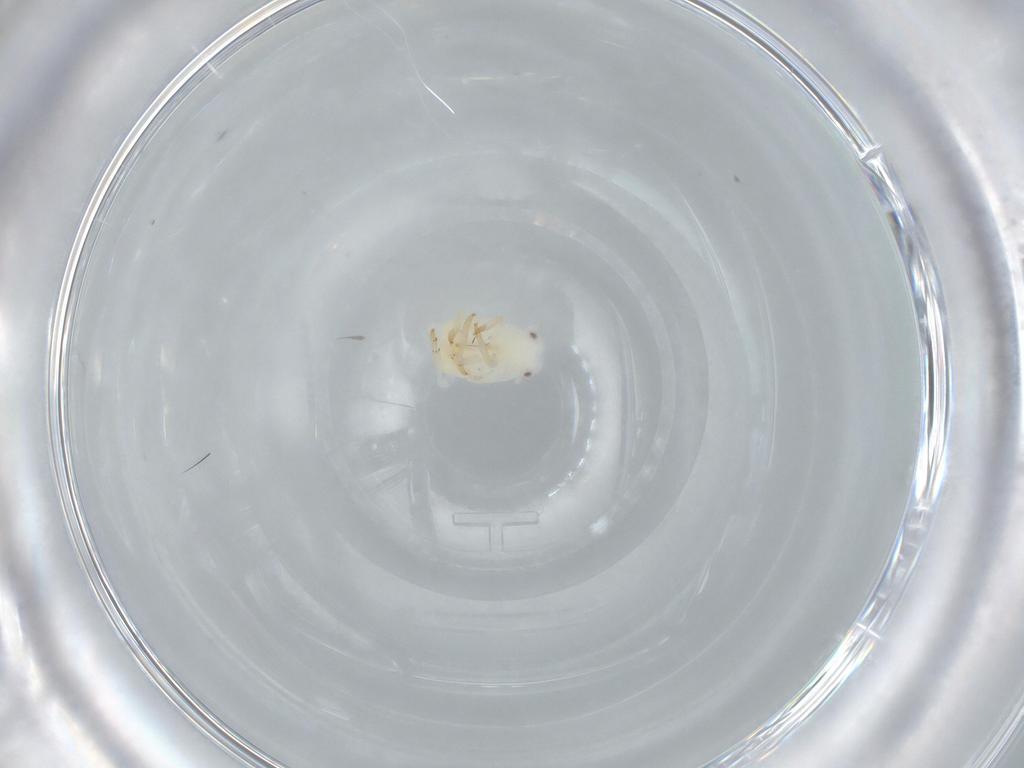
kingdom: Animalia
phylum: Arthropoda
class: Insecta
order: Hemiptera
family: Flatidae
